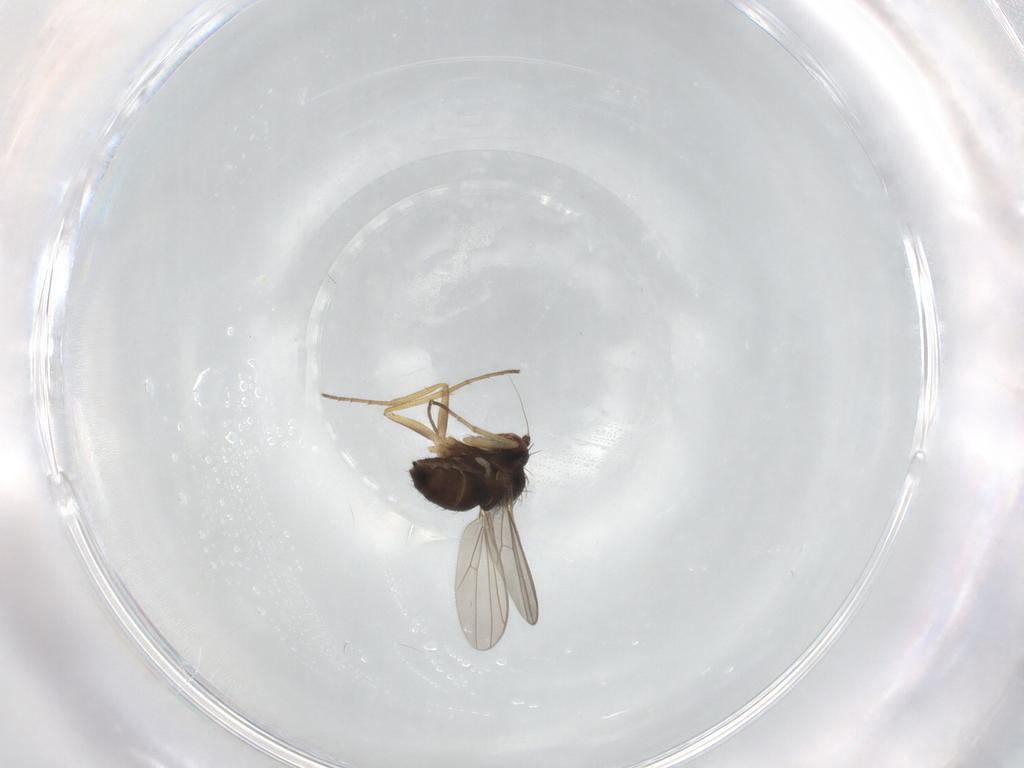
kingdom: Animalia
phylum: Arthropoda
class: Insecta
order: Diptera
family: Dolichopodidae
